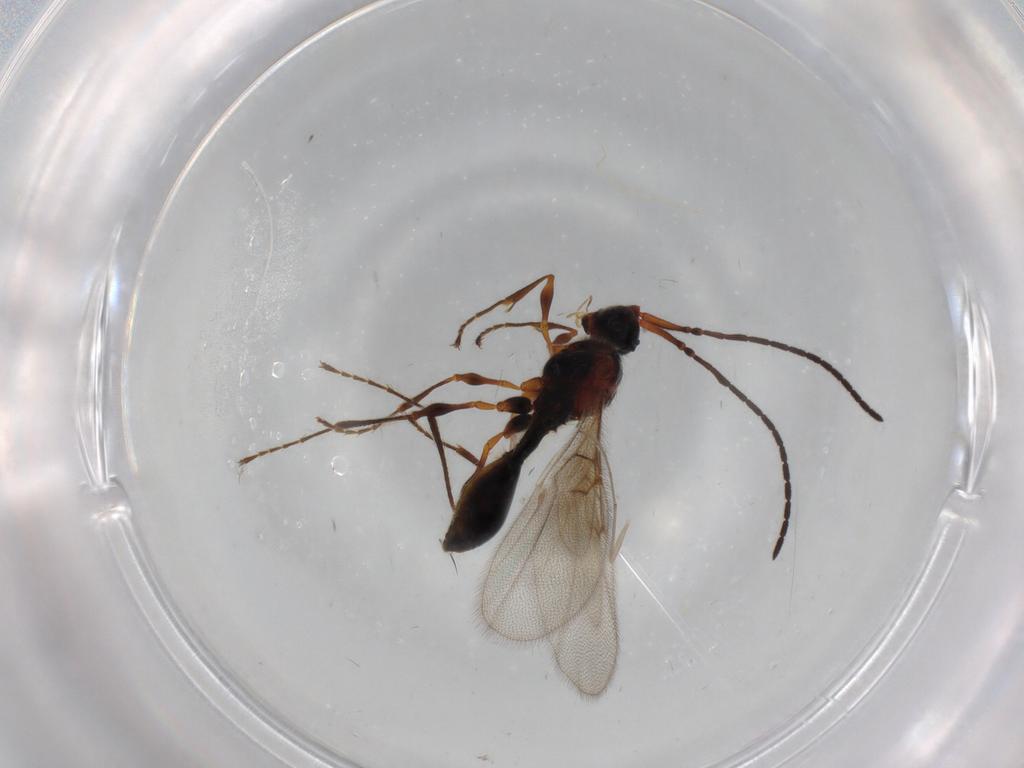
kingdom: Animalia
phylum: Arthropoda
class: Insecta
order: Hymenoptera
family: Diapriidae
